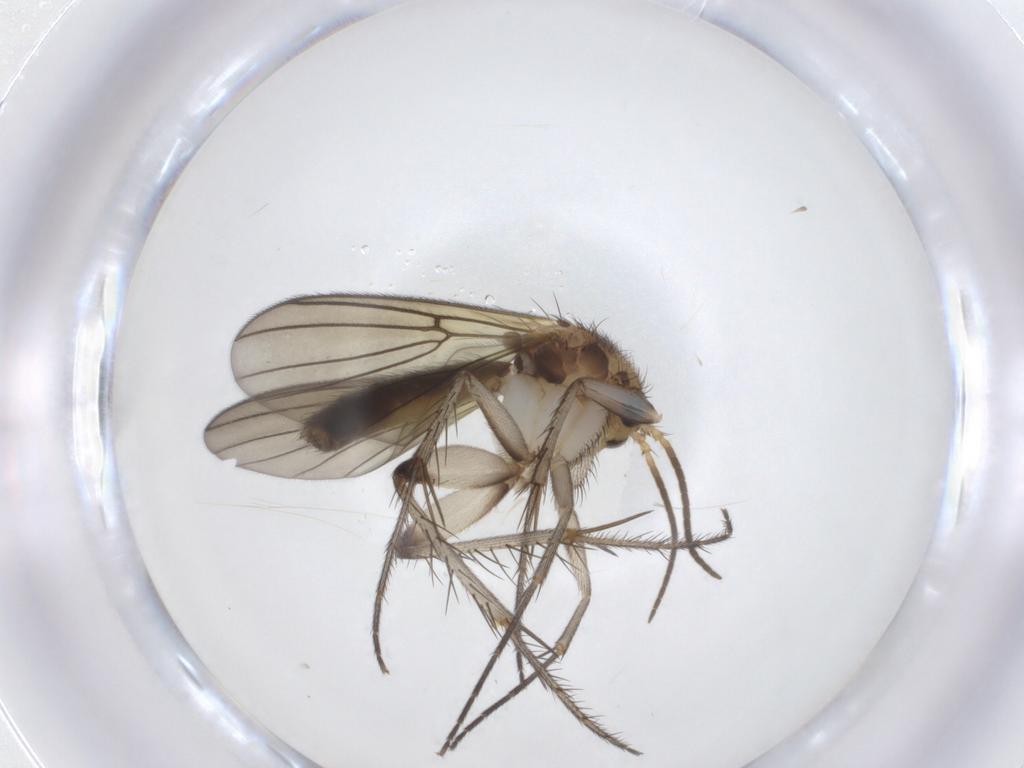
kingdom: Animalia
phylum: Arthropoda
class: Insecta
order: Diptera
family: Mycetophilidae
